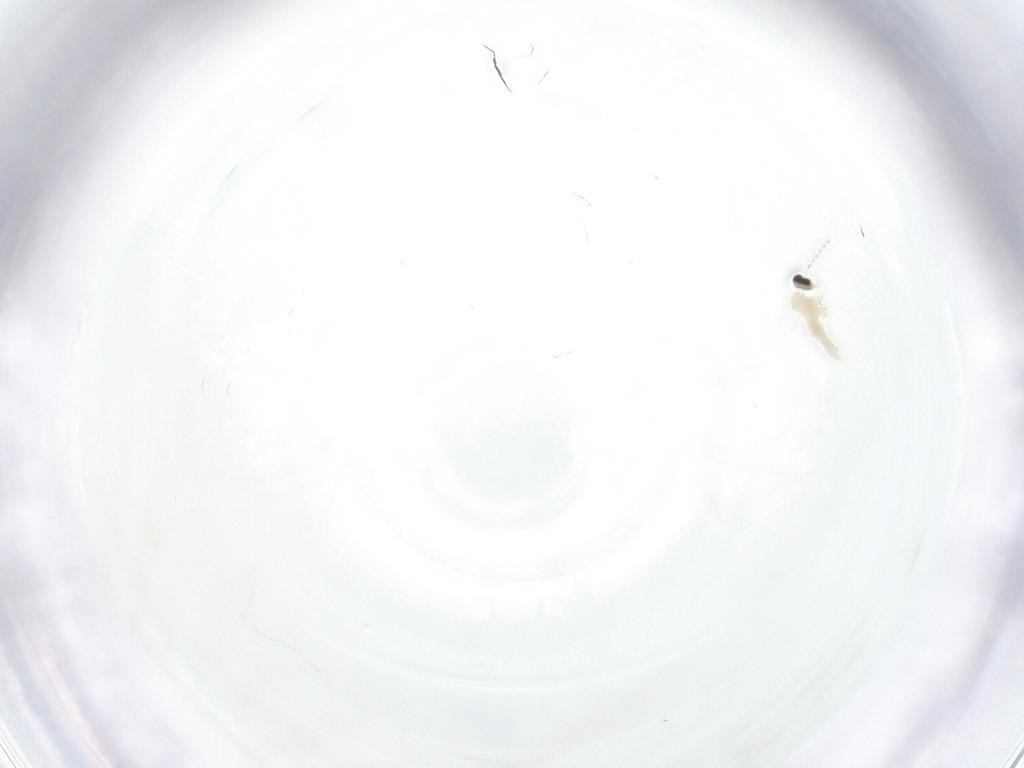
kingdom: Animalia
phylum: Arthropoda
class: Insecta
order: Diptera
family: Cecidomyiidae
